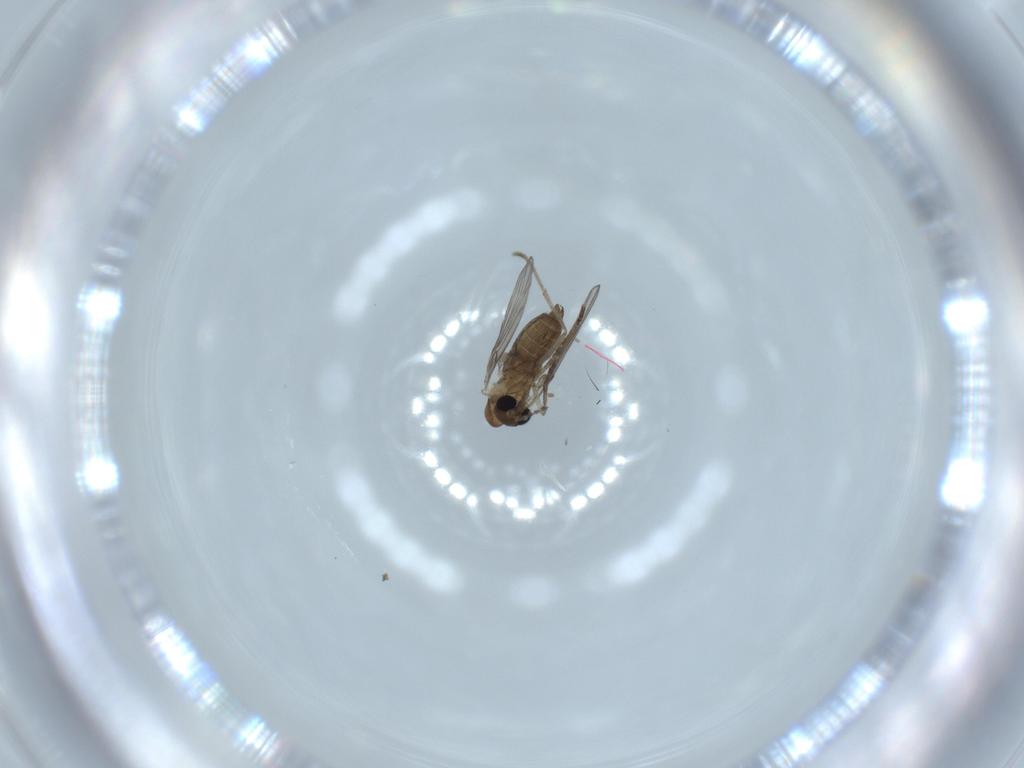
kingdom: Animalia
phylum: Arthropoda
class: Insecta
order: Diptera
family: Psychodidae
